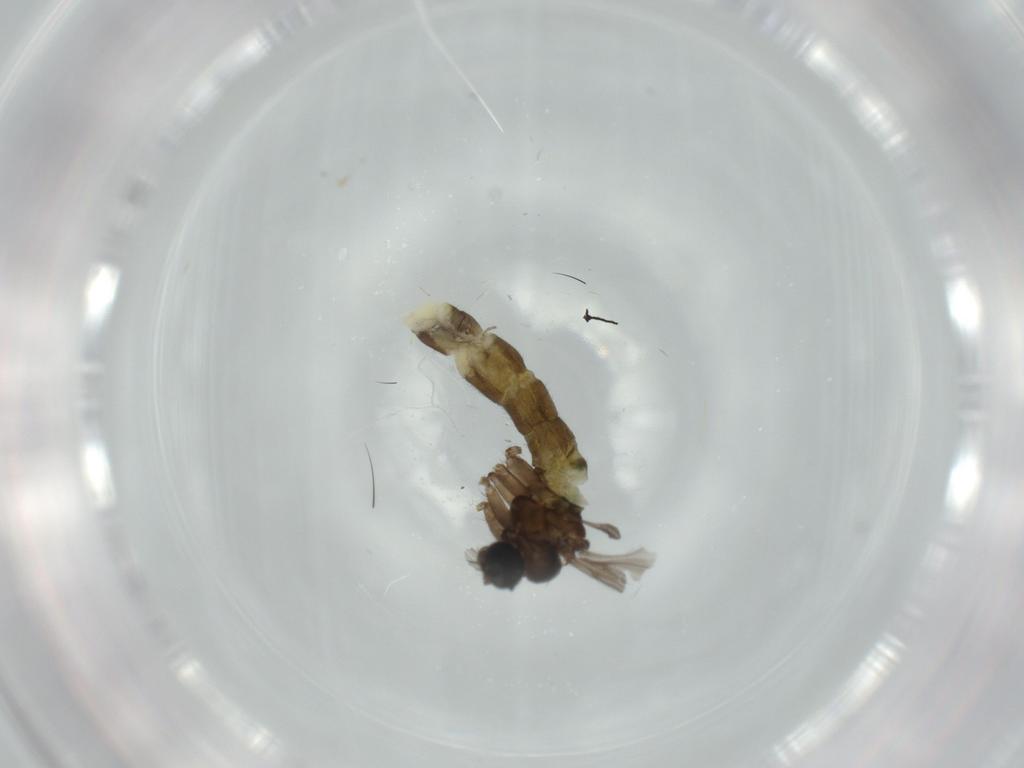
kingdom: Animalia
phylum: Arthropoda
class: Insecta
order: Diptera
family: Sciaridae
